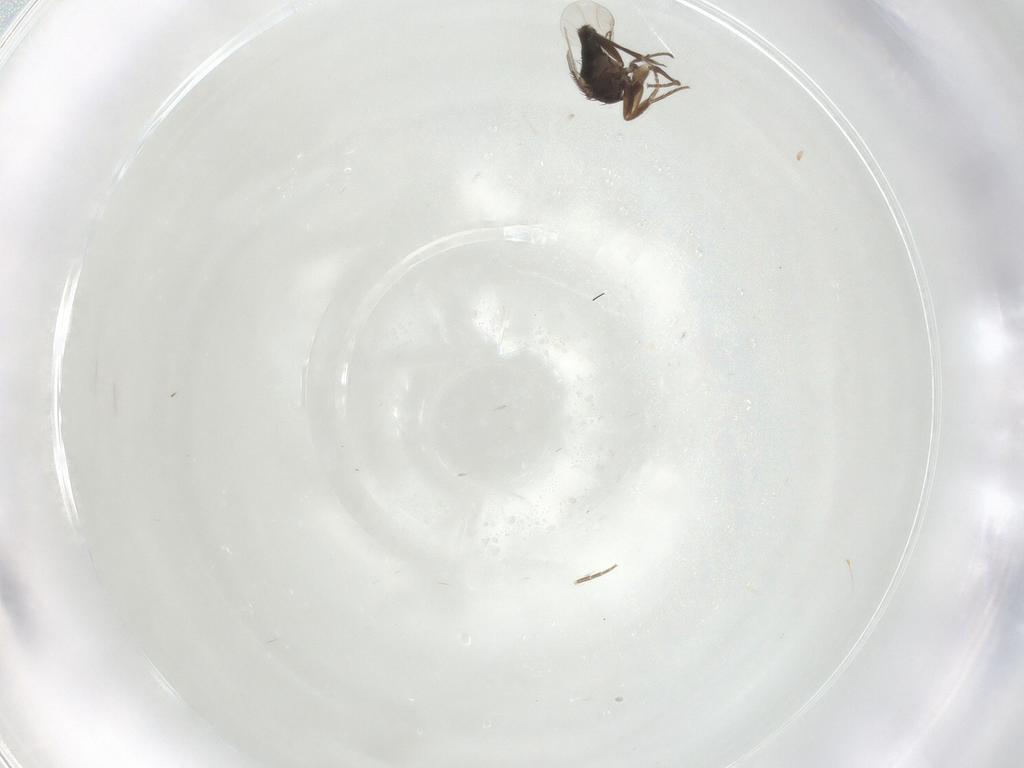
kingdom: Animalia
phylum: Arthropoda
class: Insecta
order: Diptera
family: Phoridae
